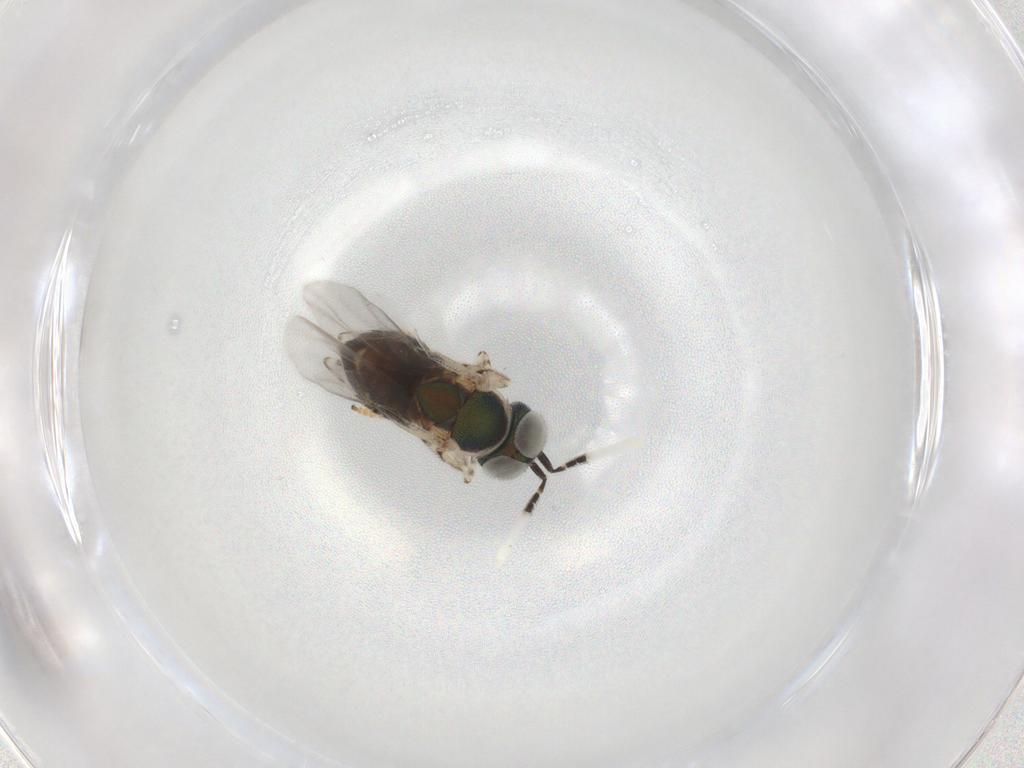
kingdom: Animalia
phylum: Arthropoda
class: Insecta
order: Hymenoptera
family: Encyrtidae
